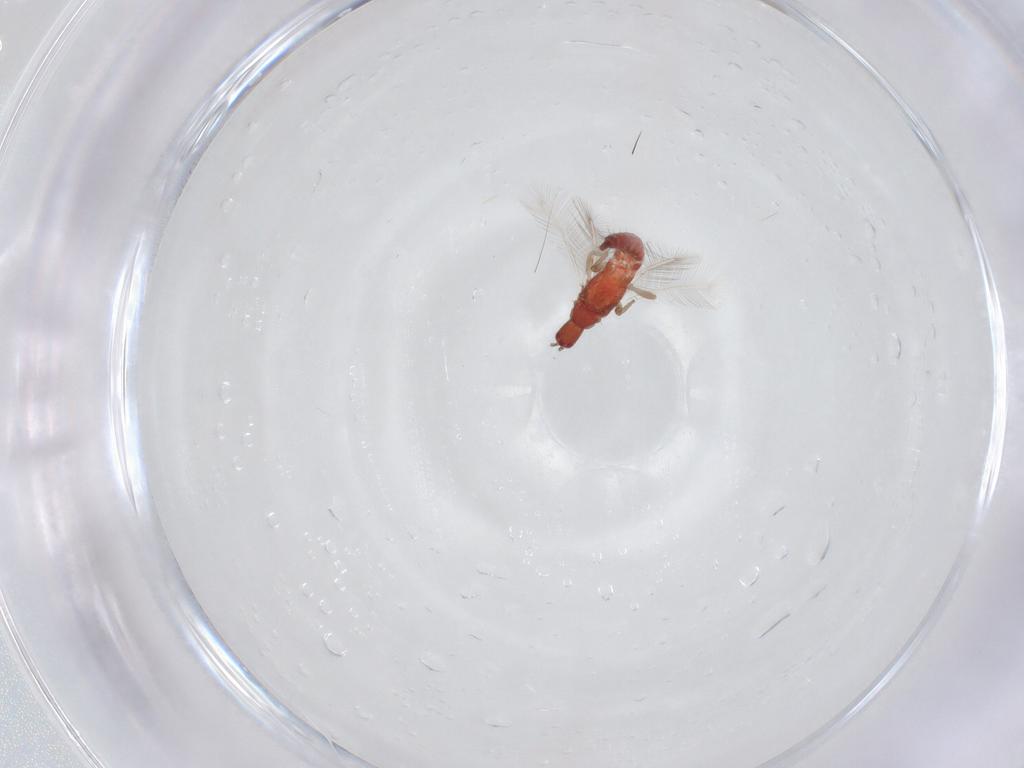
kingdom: Animalia
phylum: Arthropoda
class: Insecta
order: Thysanoptera
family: Phlaeothripidae
